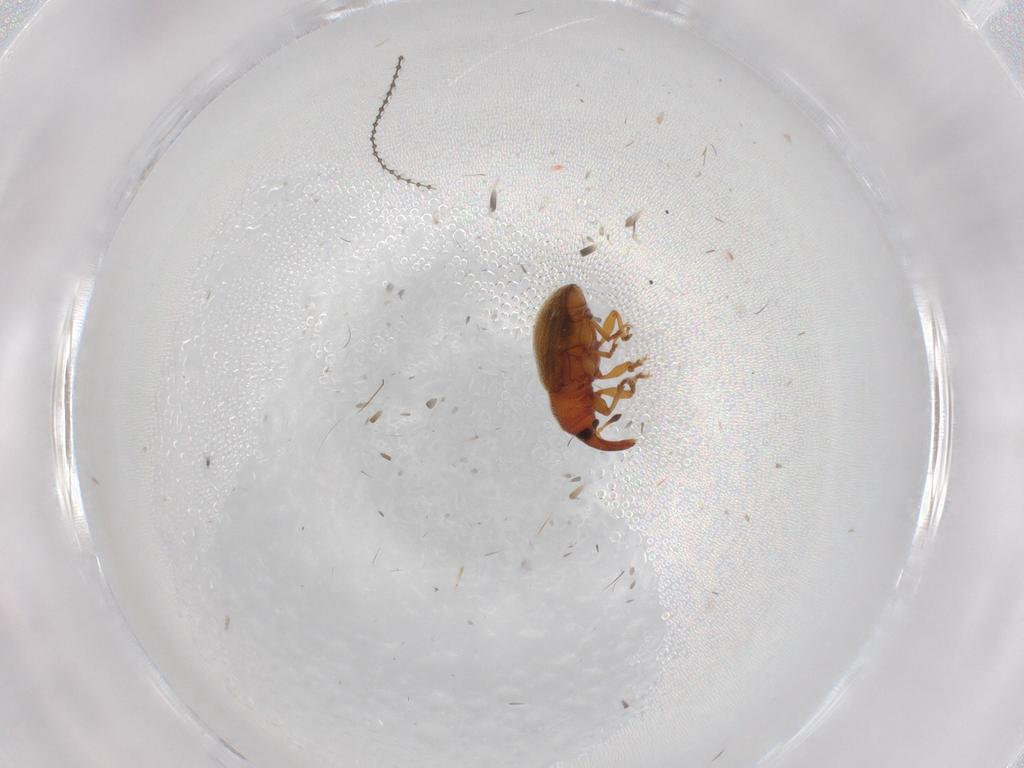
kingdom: Animalia
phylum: Arthropoda
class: Insecta
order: Coleoptera
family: Curculionidae
